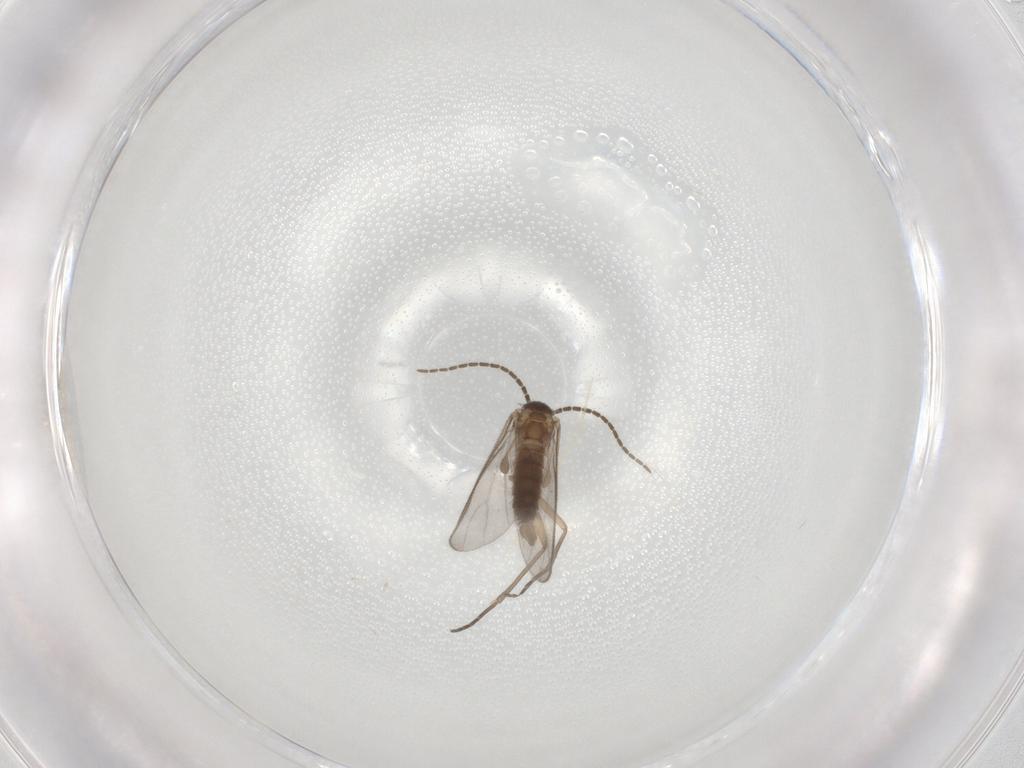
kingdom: Animalia
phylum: Arthropoda
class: Insecta
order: Diptera
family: Sciaridae
